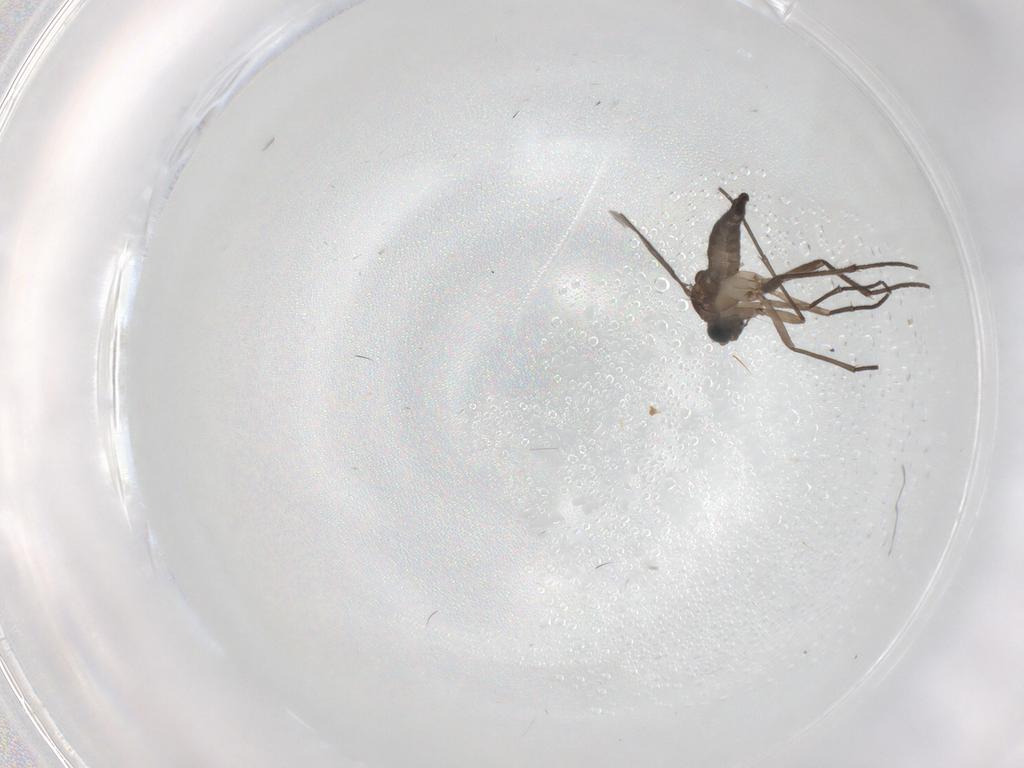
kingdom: Animalia
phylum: Arthropoda
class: Insecta
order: Diptera
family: Sciaridae
